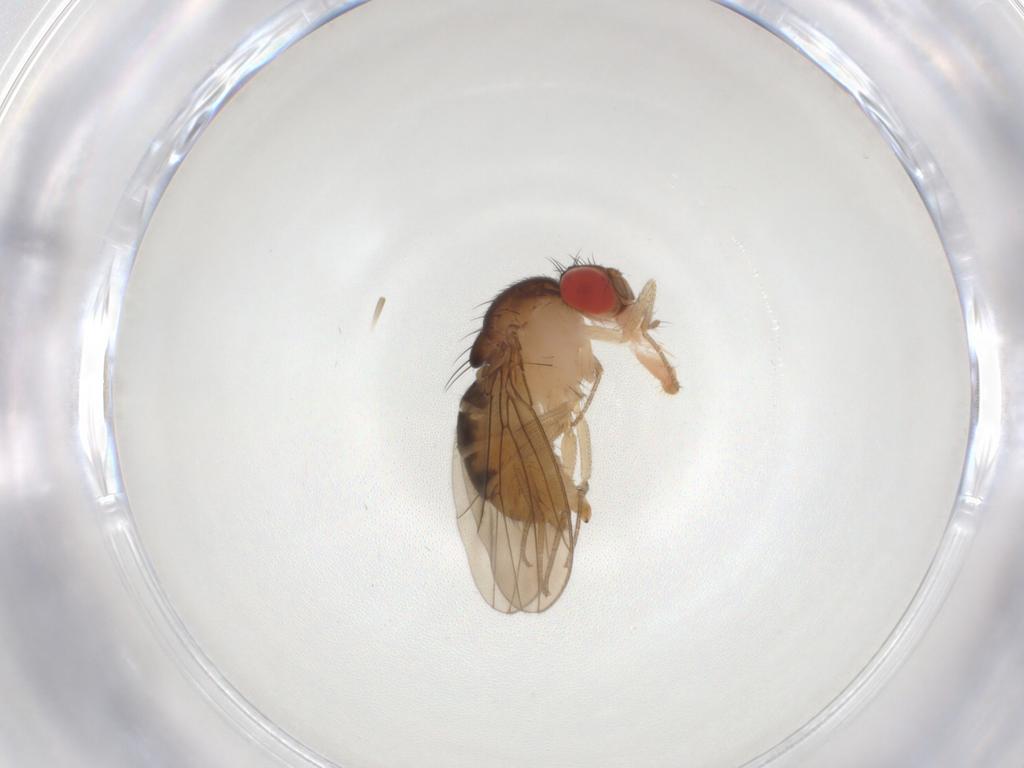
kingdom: Animalia
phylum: Arthropoda
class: Insecta
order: Diptera
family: Drosophilidae
